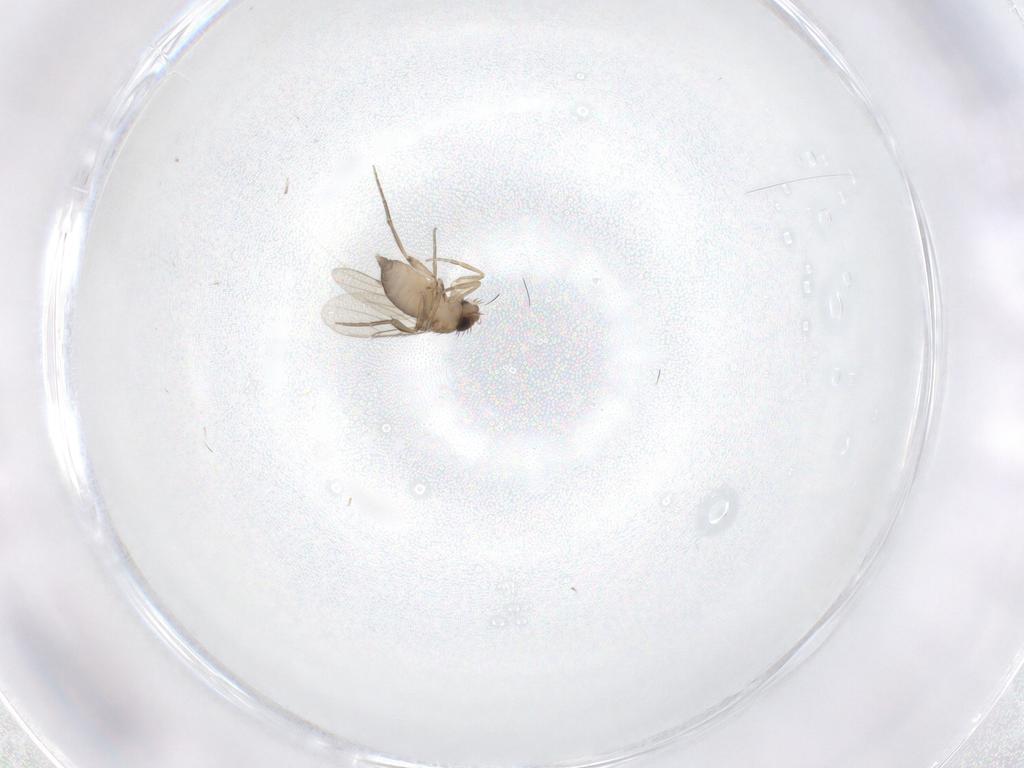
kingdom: Animalia
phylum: Arthropoda
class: Insecta
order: Diptera
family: Phoridae
